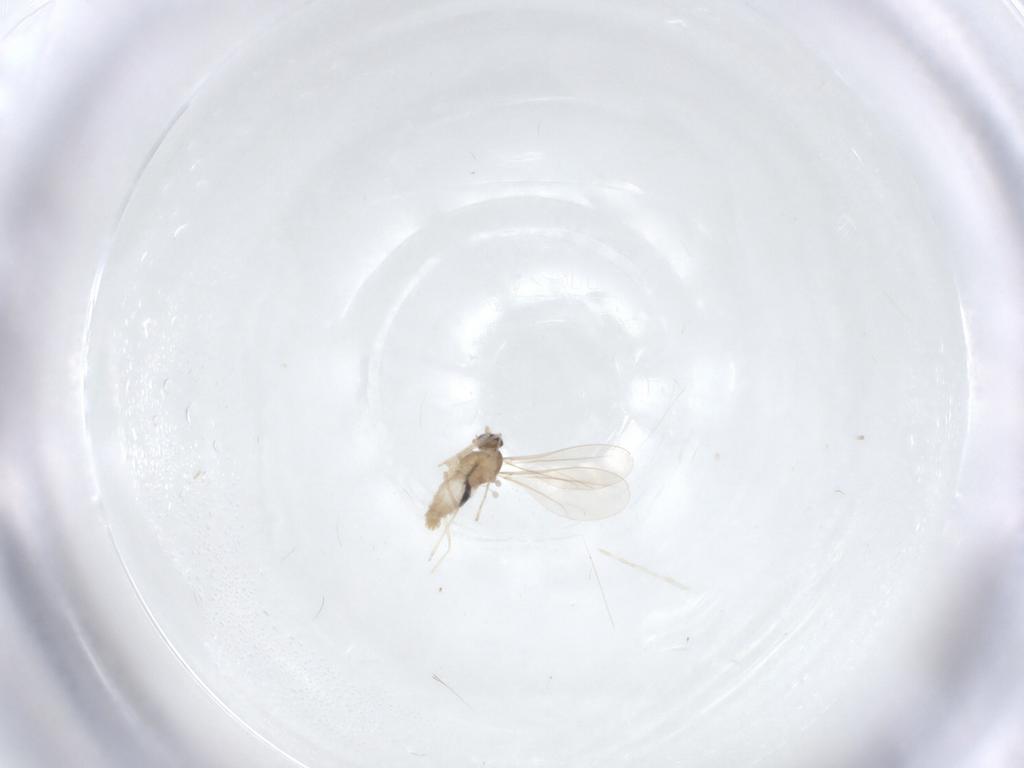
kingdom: Animalia
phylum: Arthropoda
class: Insecta
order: Diptera
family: Cecidomyiidae
